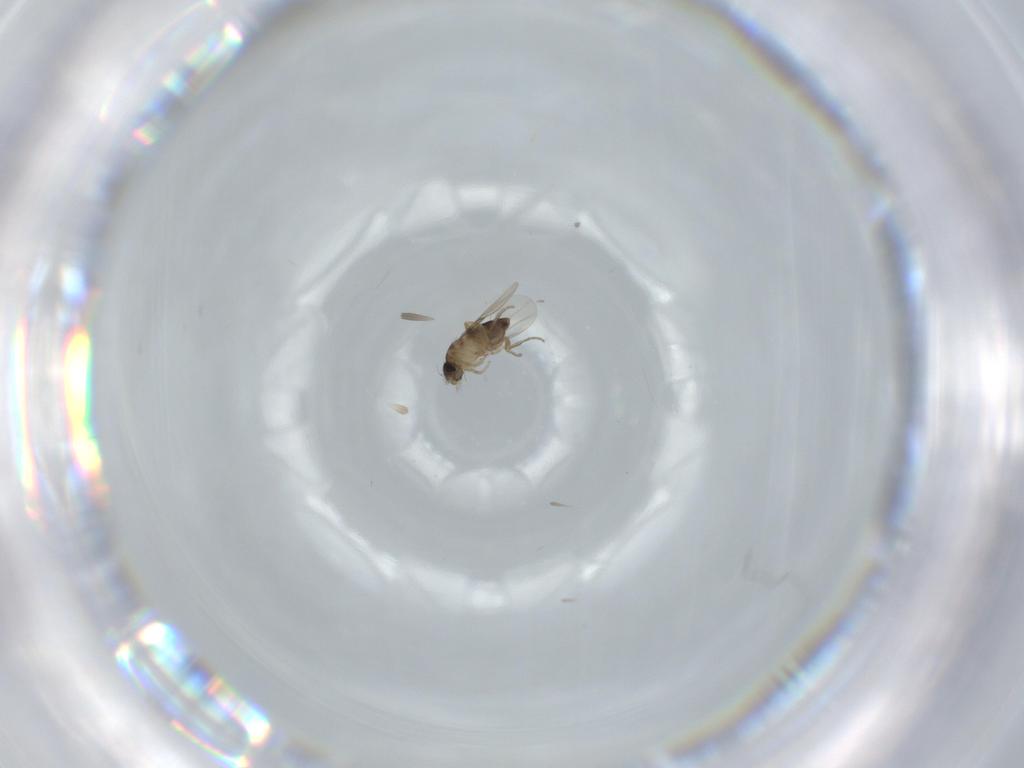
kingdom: Animalia
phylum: Arthropoda
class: Insecta
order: Diptera
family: Phoridae
